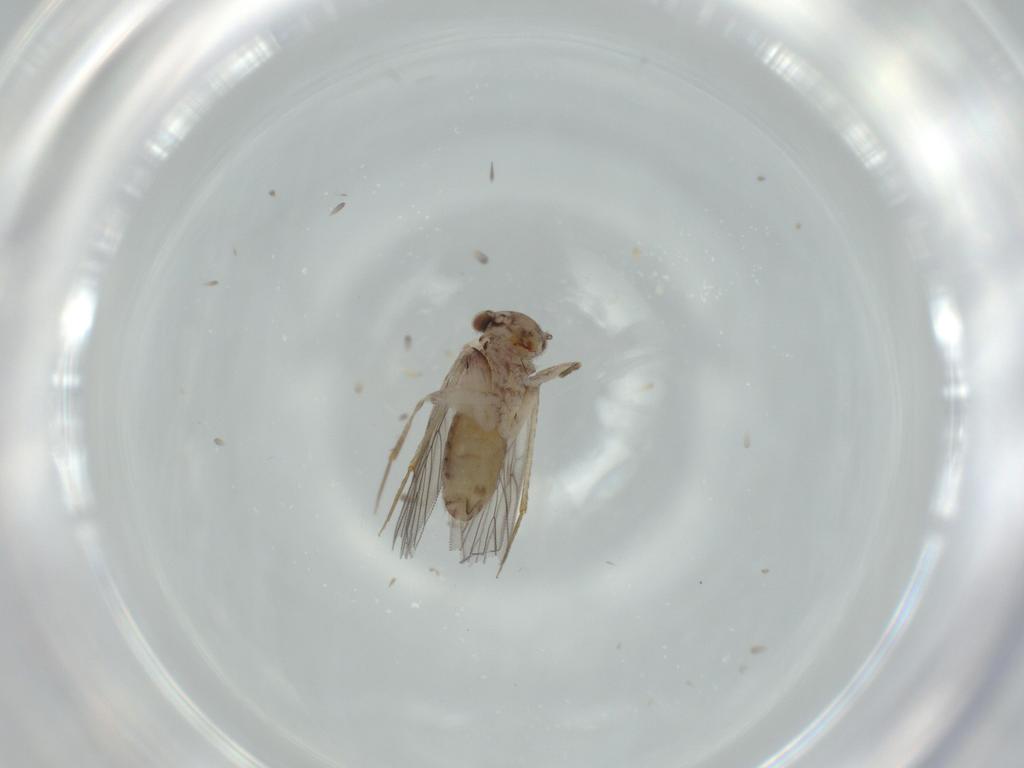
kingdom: Animalia
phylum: Arthropoda
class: Insecta
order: Psocodea
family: Lepidopsocidae
